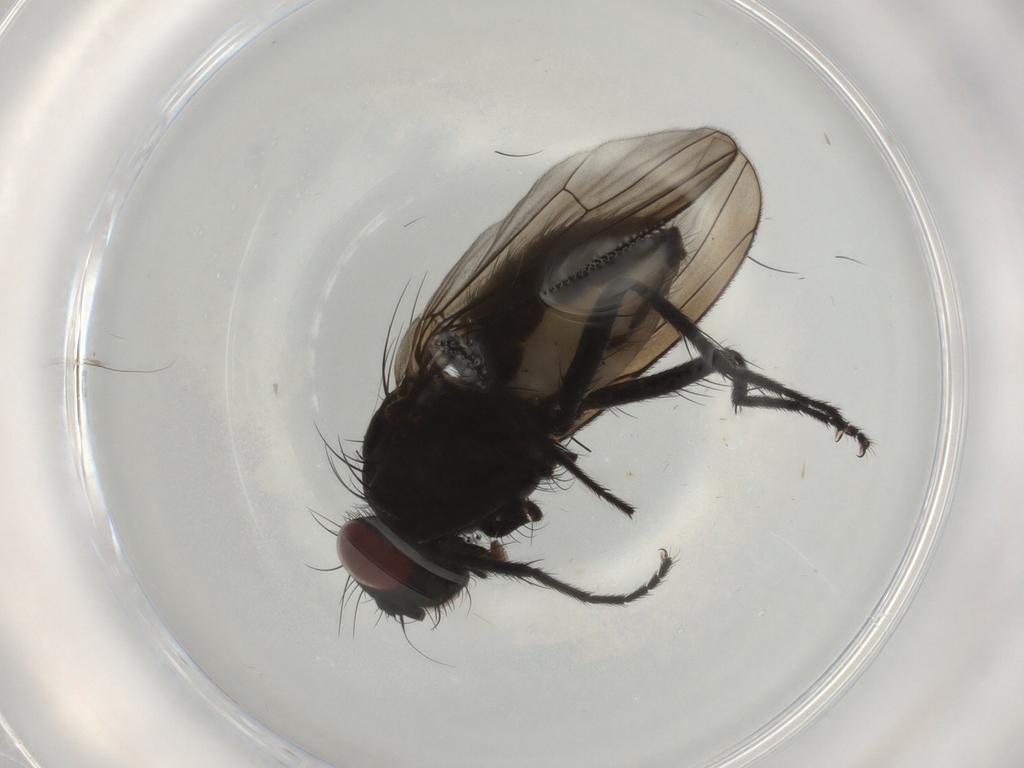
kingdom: Animalia
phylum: Arthropoda
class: Insecta
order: Diptera
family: Muscidae
